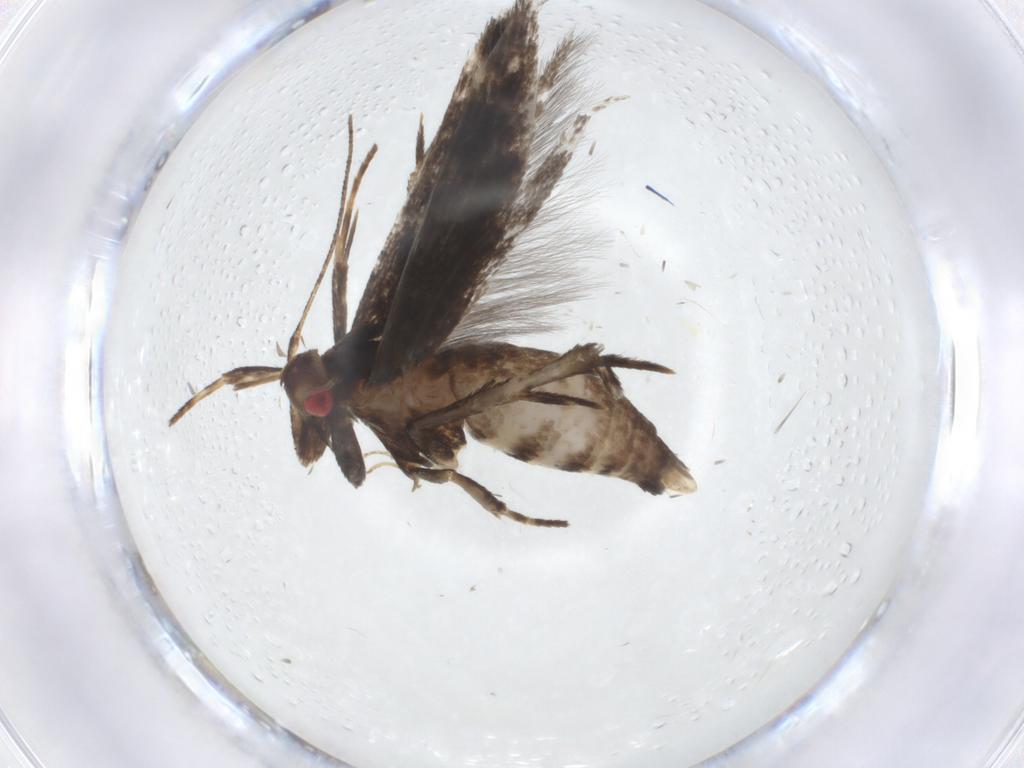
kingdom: Animalia
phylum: Arthropoda
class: Insecta
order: Lepidoptera
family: Gelechiidae
